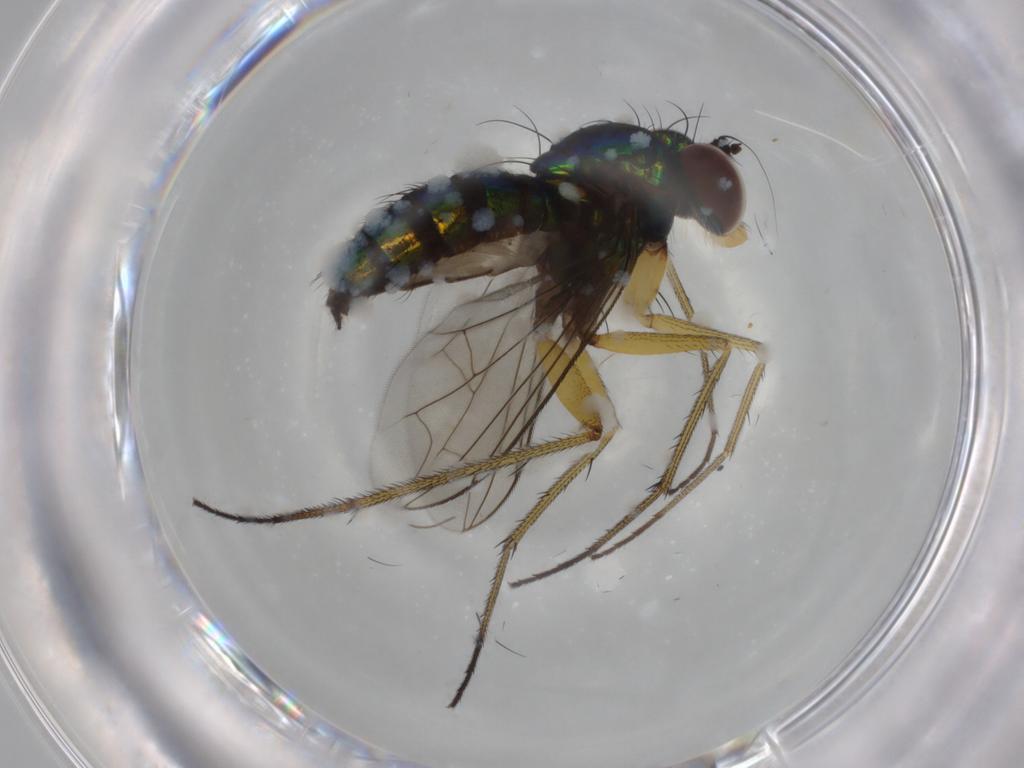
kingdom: Animalia
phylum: Arthropoda
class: Insecta
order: Diptera
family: Dolichopodidae
